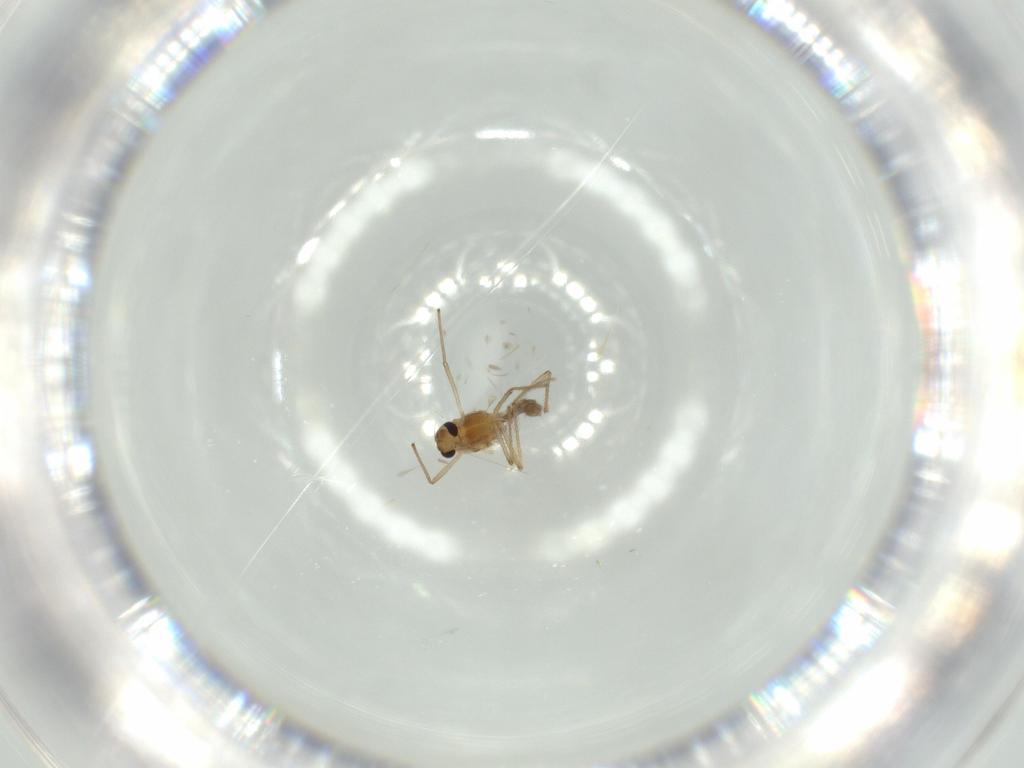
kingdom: Animalia
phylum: Arthropoda
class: Insecta
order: Diptera
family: Chironomidae
